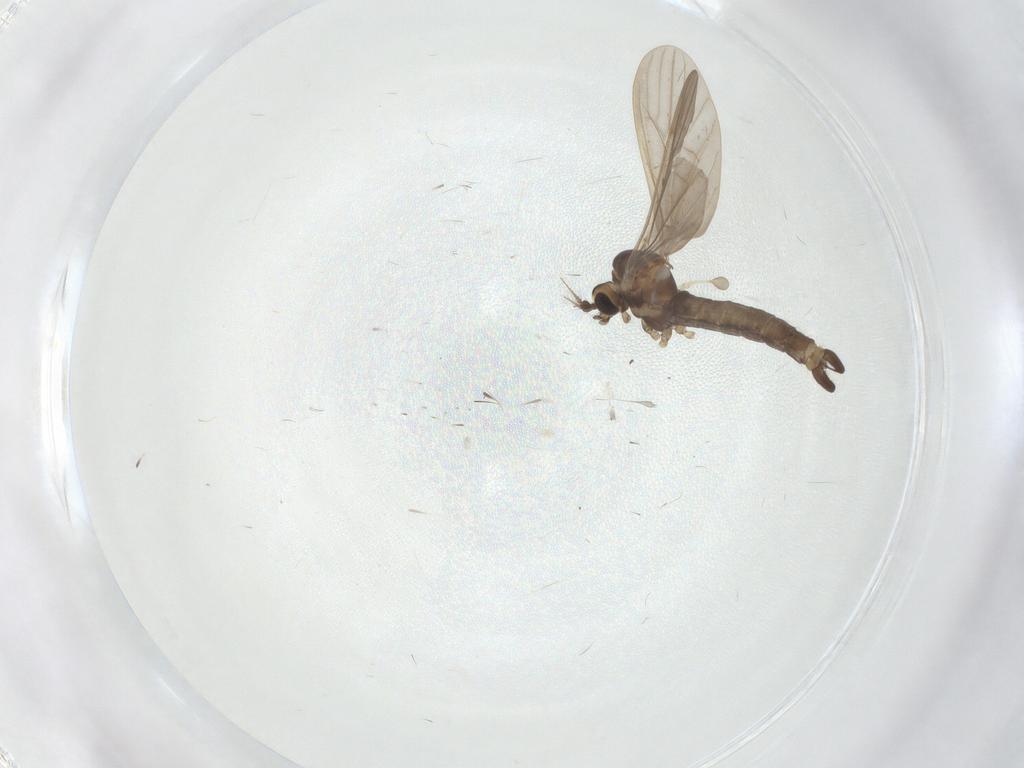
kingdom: Animalia
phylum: Arthropoda
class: Insecta
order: Diptera
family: Limoniidae
